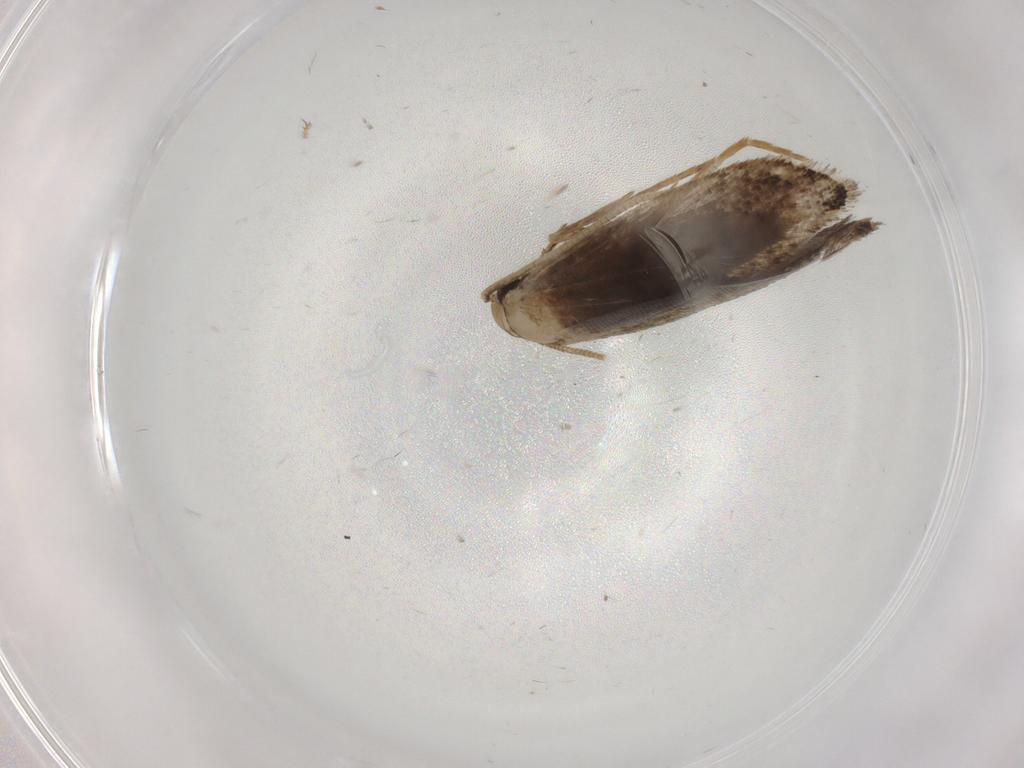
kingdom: Animalia
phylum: Arthropoda
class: Insecta
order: Lepidoptera
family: Tineidae
